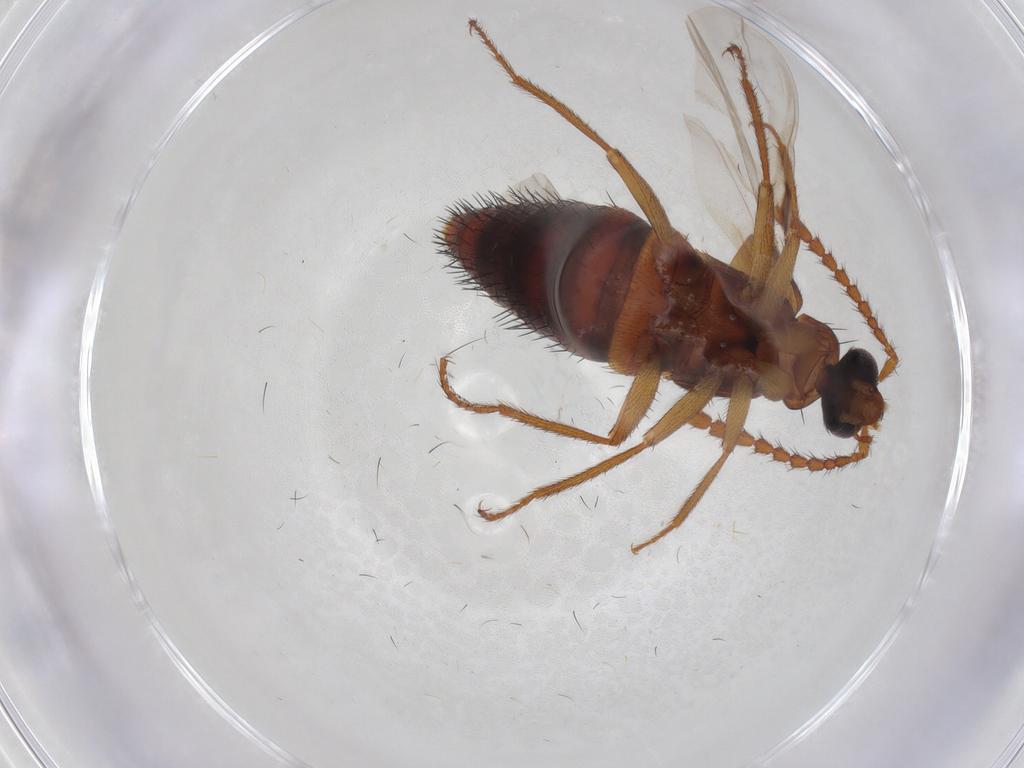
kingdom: Animalia
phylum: Arthropoda
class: Insecta
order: Coleoptera
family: Staphylinidae
